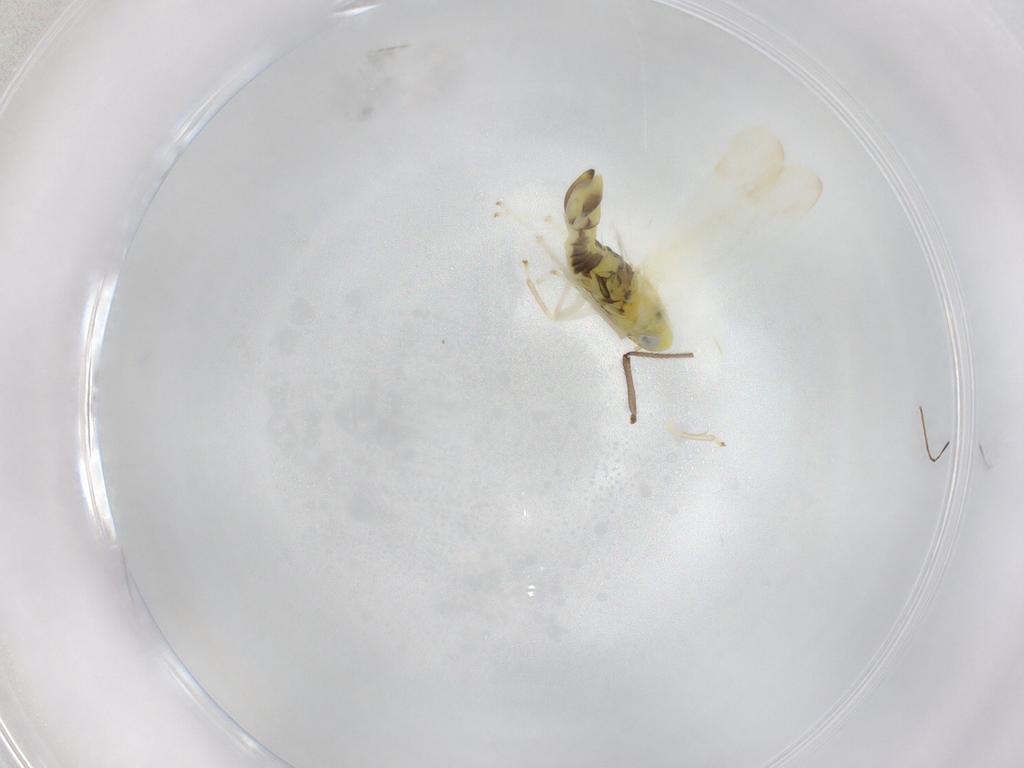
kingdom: Animalia
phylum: Arthropoda
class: Insecta
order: Hemiptera
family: Cicadellidae
